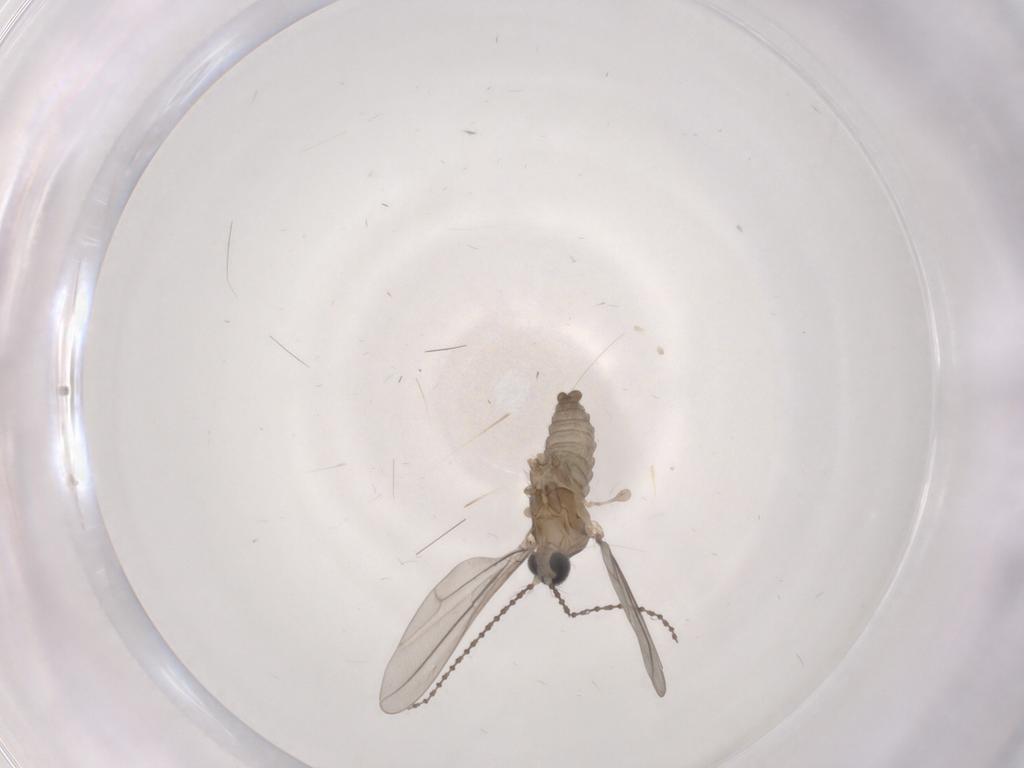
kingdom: Animalia
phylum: Arthropoda
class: Insecta
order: Diptera
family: Cecidomyiidae
